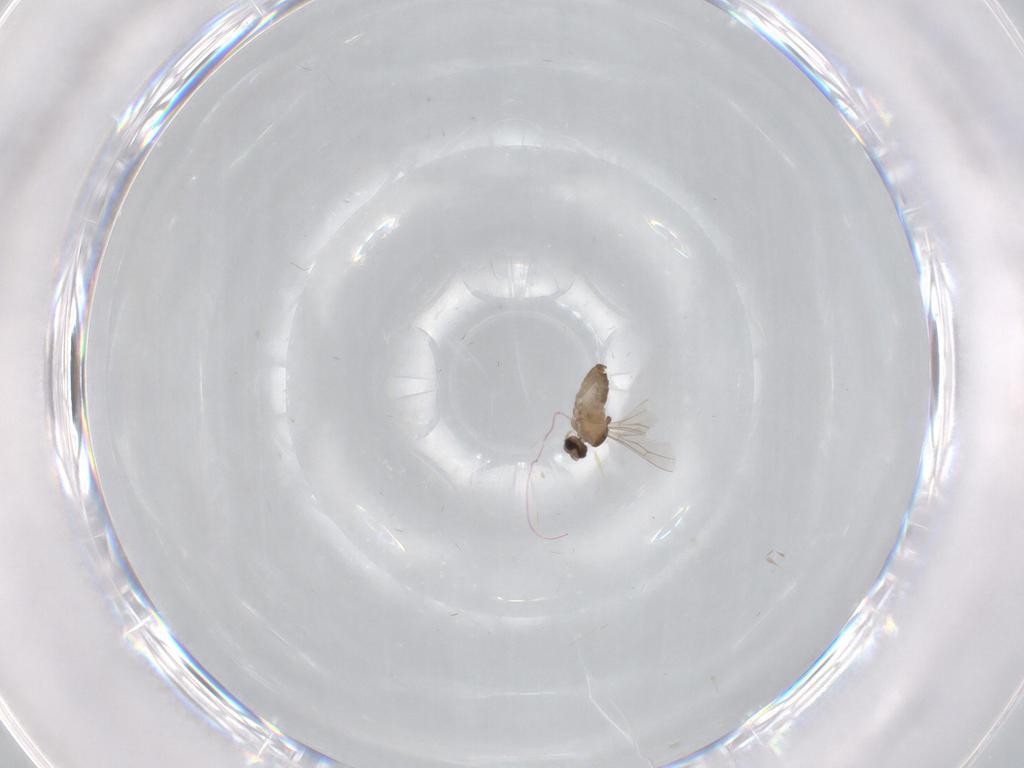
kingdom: Animalia
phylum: Arthropoda
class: Insecta
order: Diptera
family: Cecidomyiidae
